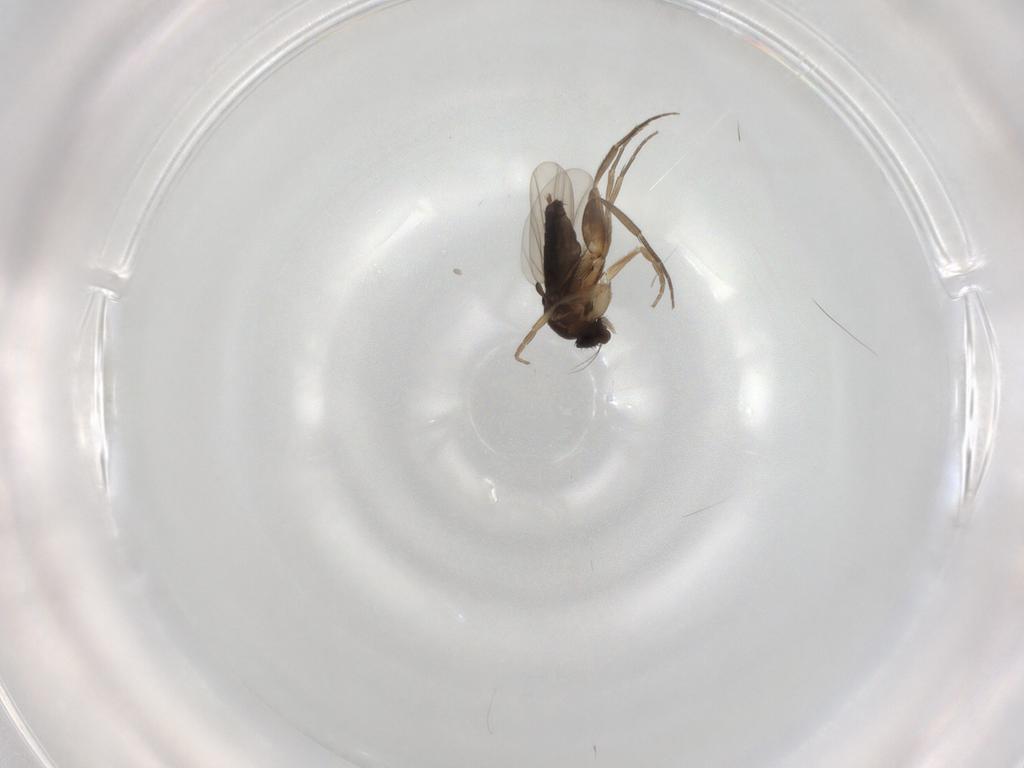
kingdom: Animalia
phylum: Arthropoda
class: Insecta
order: Diptera
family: Phoridae
